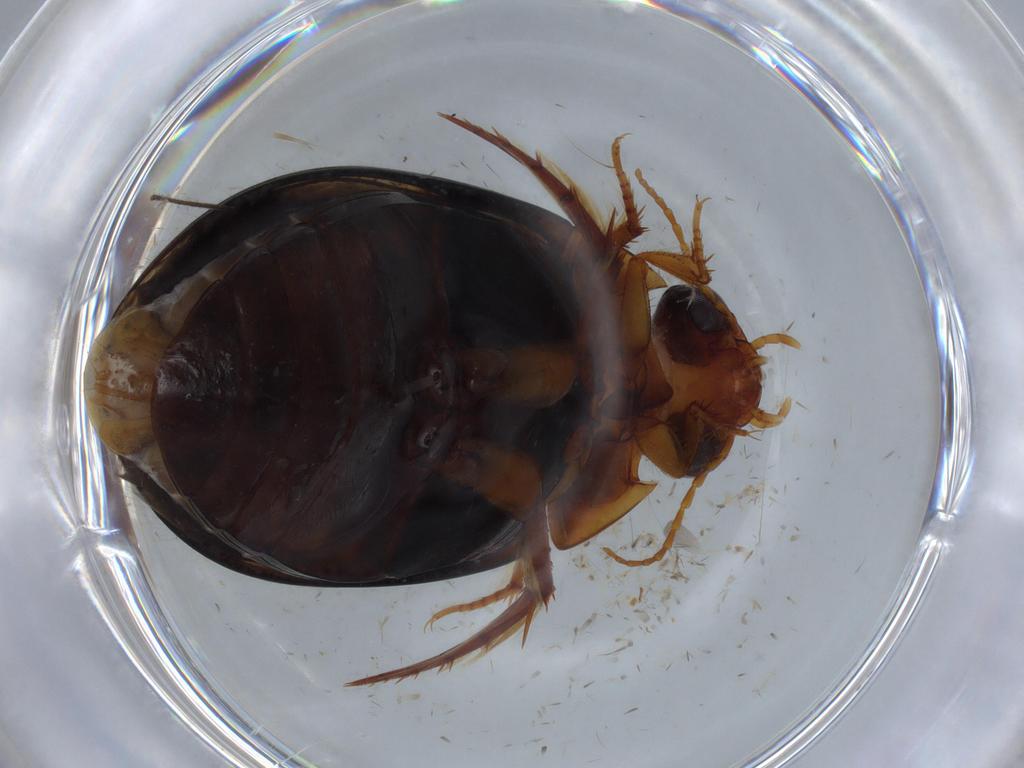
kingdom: Animalia
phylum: Arthropoda
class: Insecta
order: Coleoptera
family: Dytiscidae
